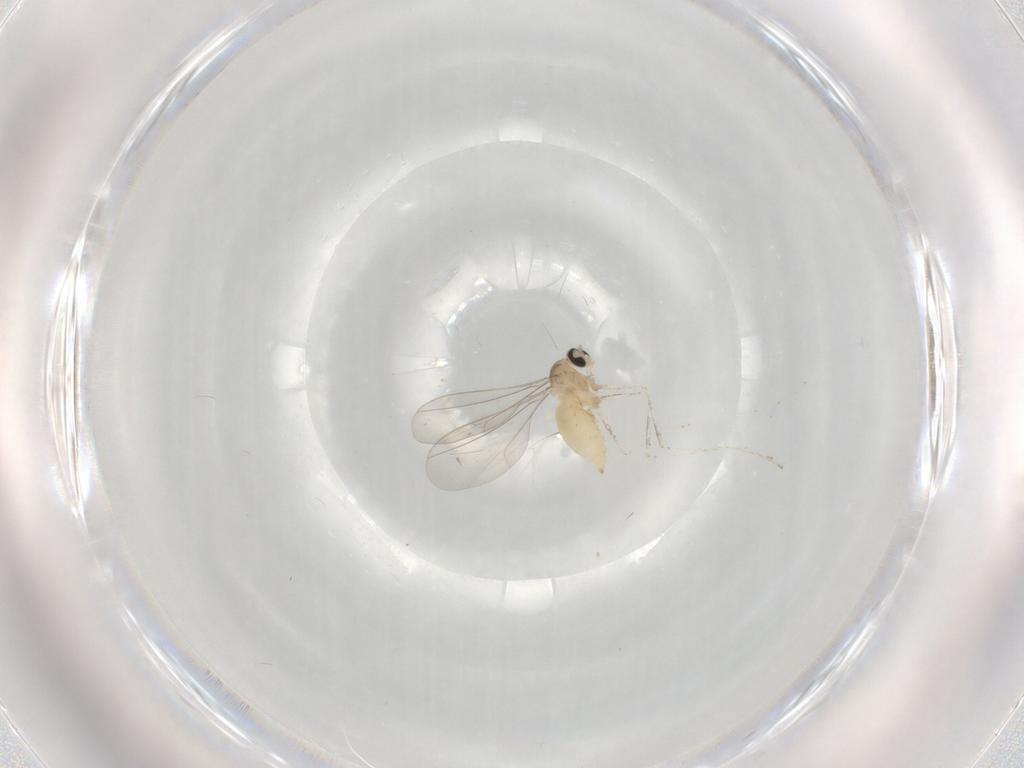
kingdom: Animalia
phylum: Arthropoda
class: Insecta
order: Diptera
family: Cecidomyiidae
